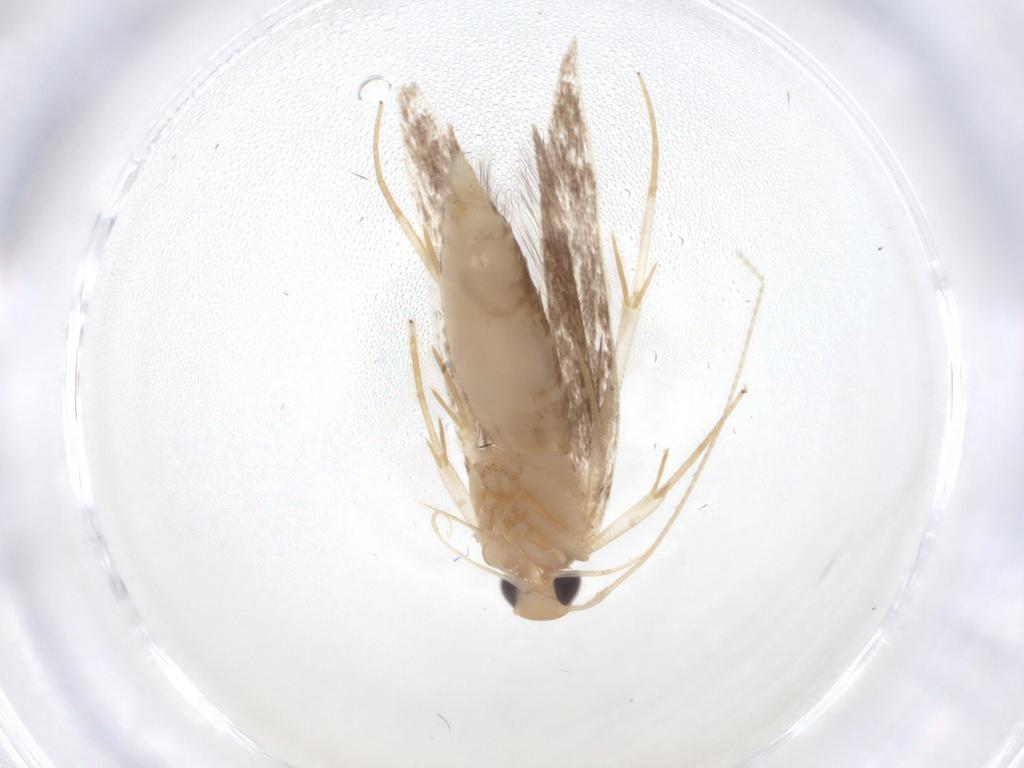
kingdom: Animalia
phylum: Arthropoda
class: Insecta
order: Lepidoptera
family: Cosmopterigidae
